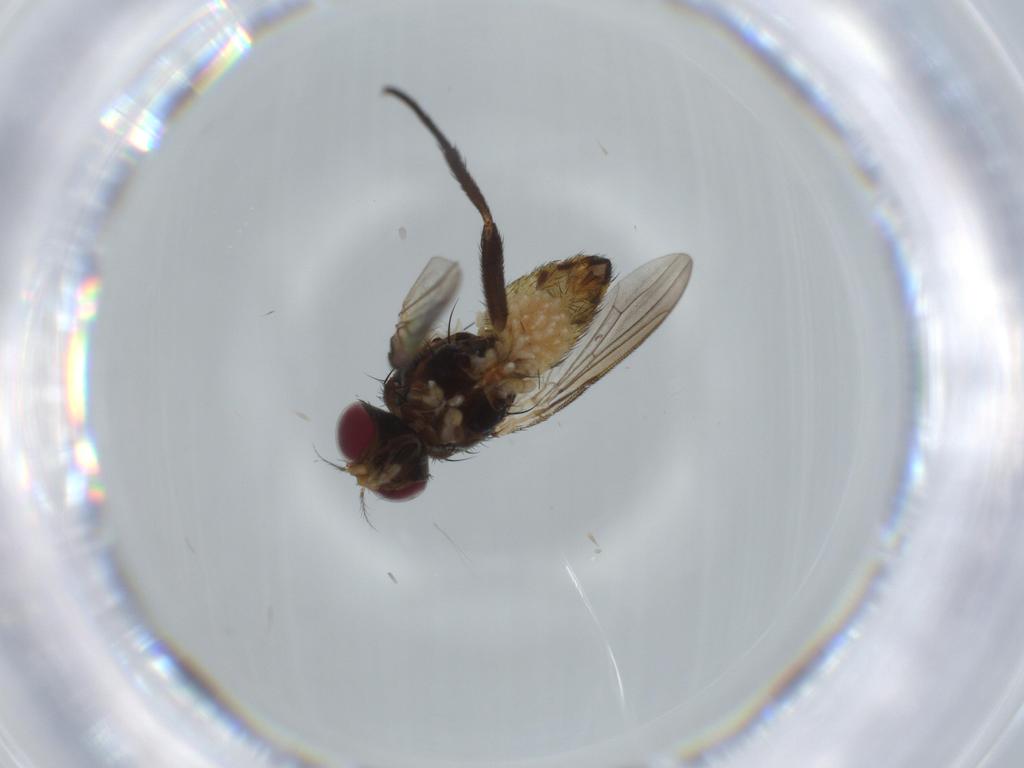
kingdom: Animalia
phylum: Arthropoda
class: Insecta
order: Diptera
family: Anthomyiidae
